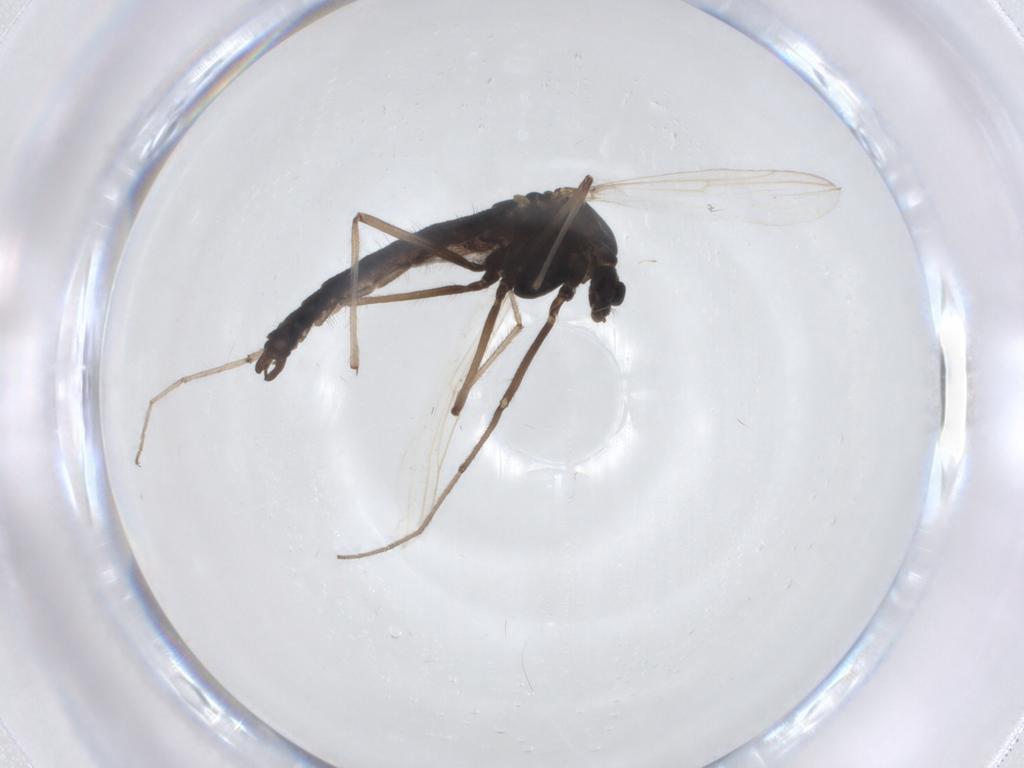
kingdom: Animalia
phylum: Arthropoda
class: Insecta
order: Diptera
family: Chironomidae
